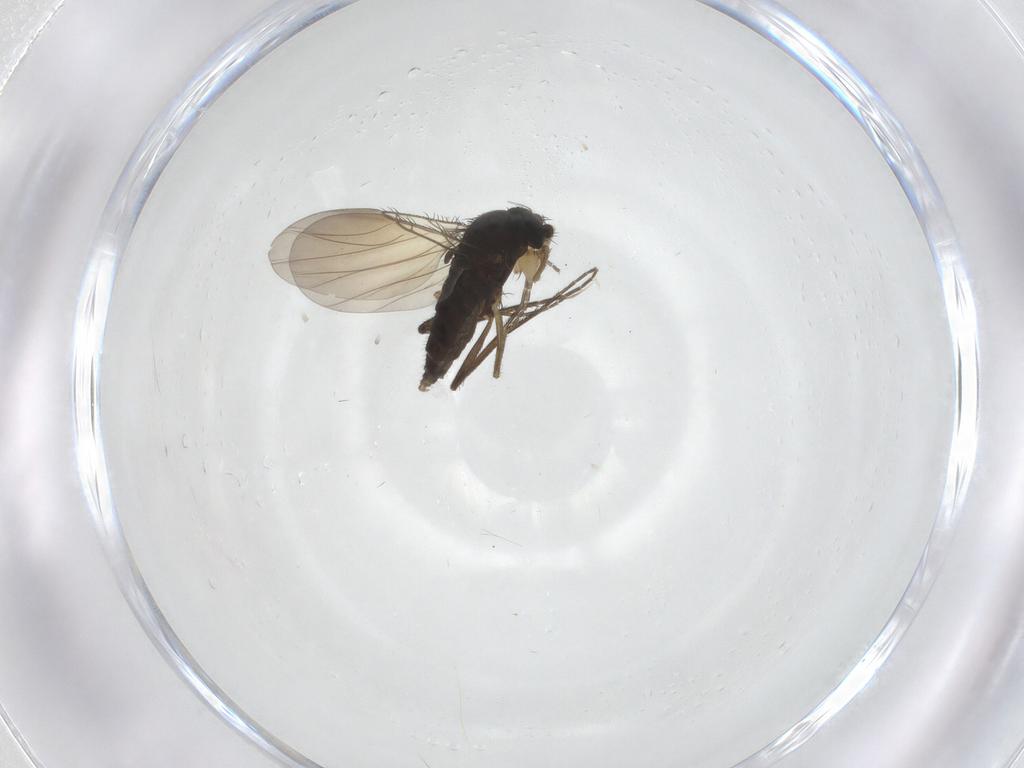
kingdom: Animalia
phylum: Arthropoda
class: Insecta
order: Diptera
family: Phoridae
